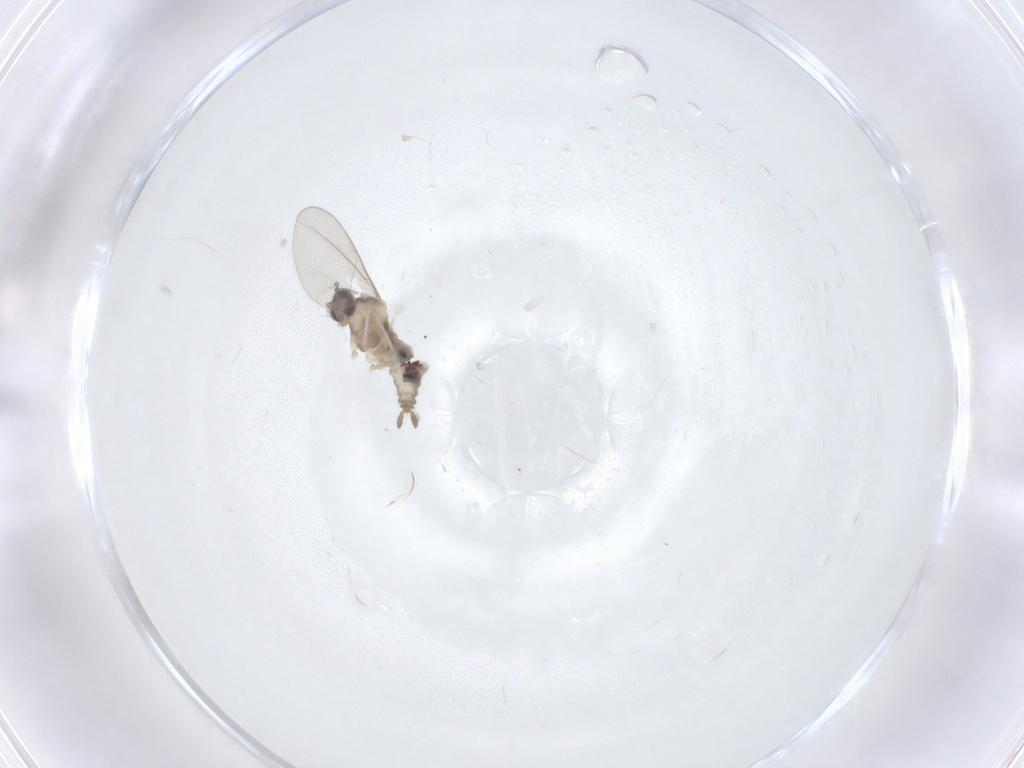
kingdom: Animalia
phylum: Arthropoda
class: Insecta
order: Diptera
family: Cecidomyiidae
